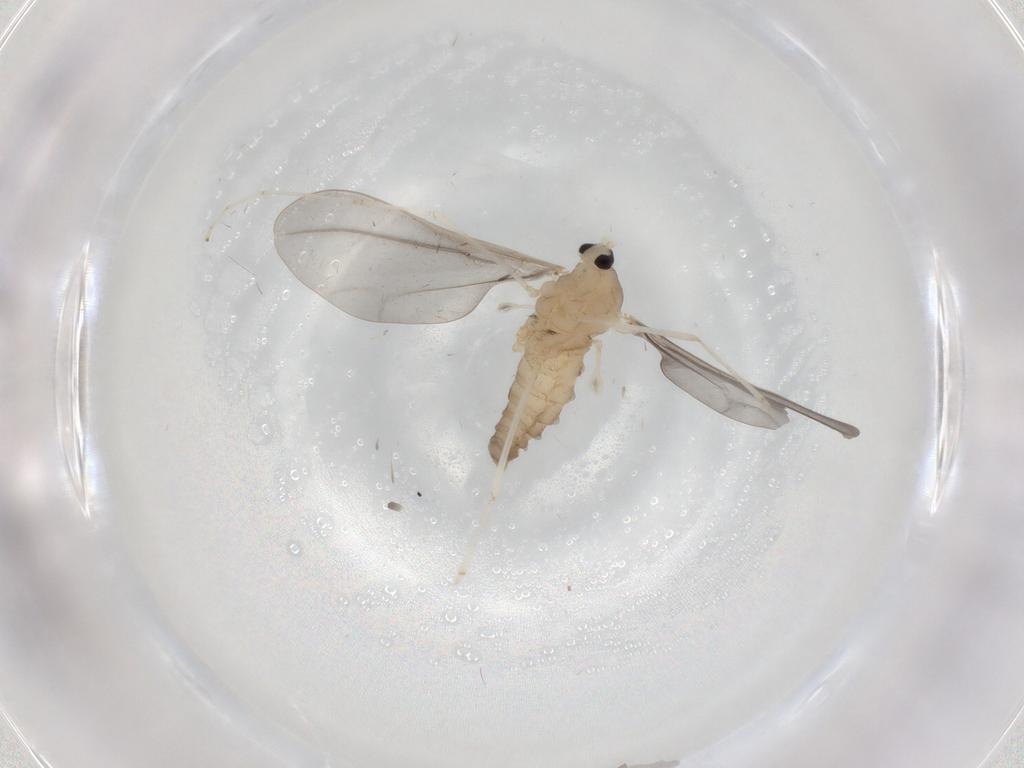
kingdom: Animalia
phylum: Arthropoda
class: Insecta
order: Diptera
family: Cecidomyiidae
